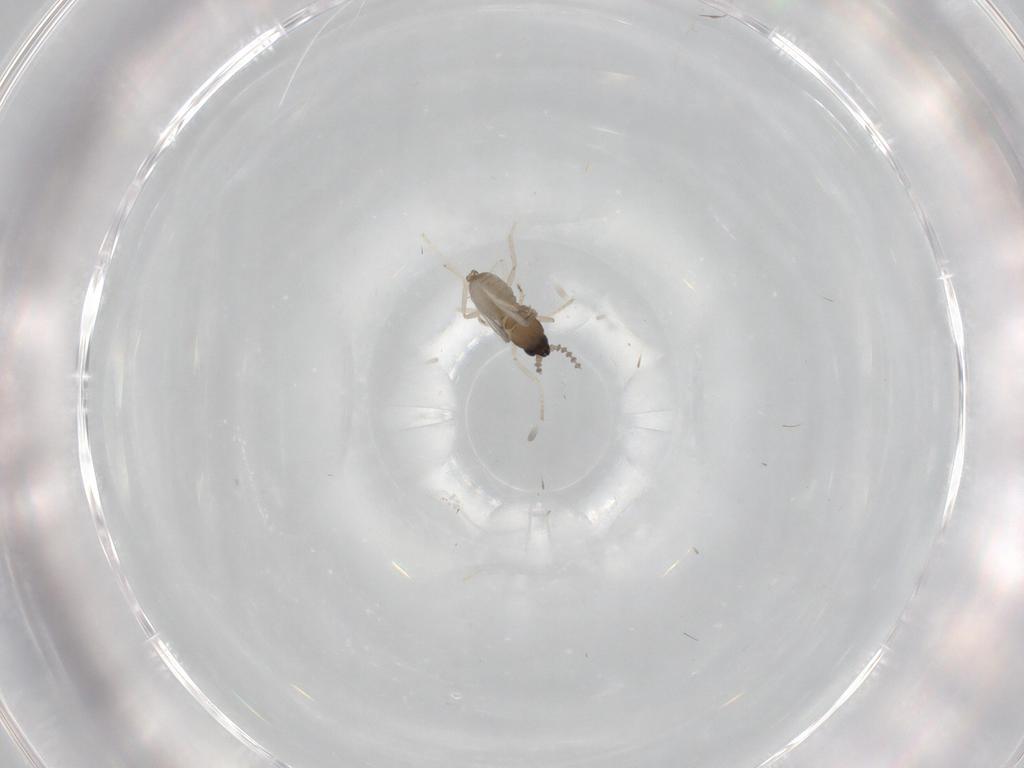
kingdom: Animalia
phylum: Arthropoda
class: Insecta
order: Diptera
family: Cecidomyiidae
